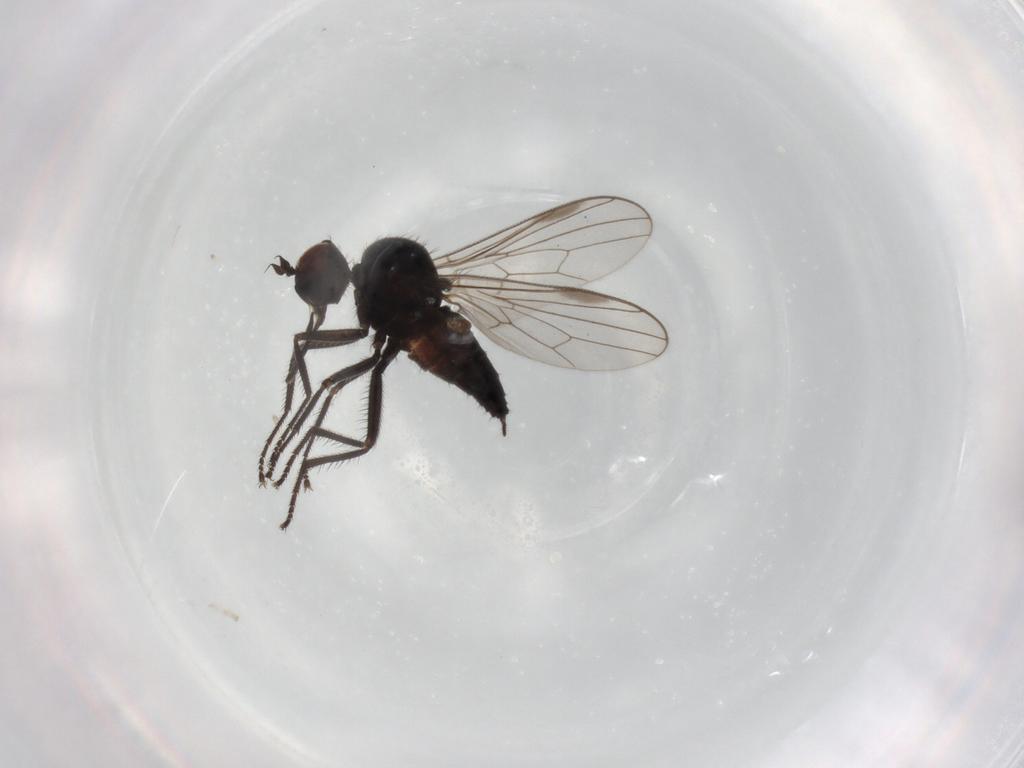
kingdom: Animalia
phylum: Arthropoda
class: Insecta
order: Diptera
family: Hybotidae
